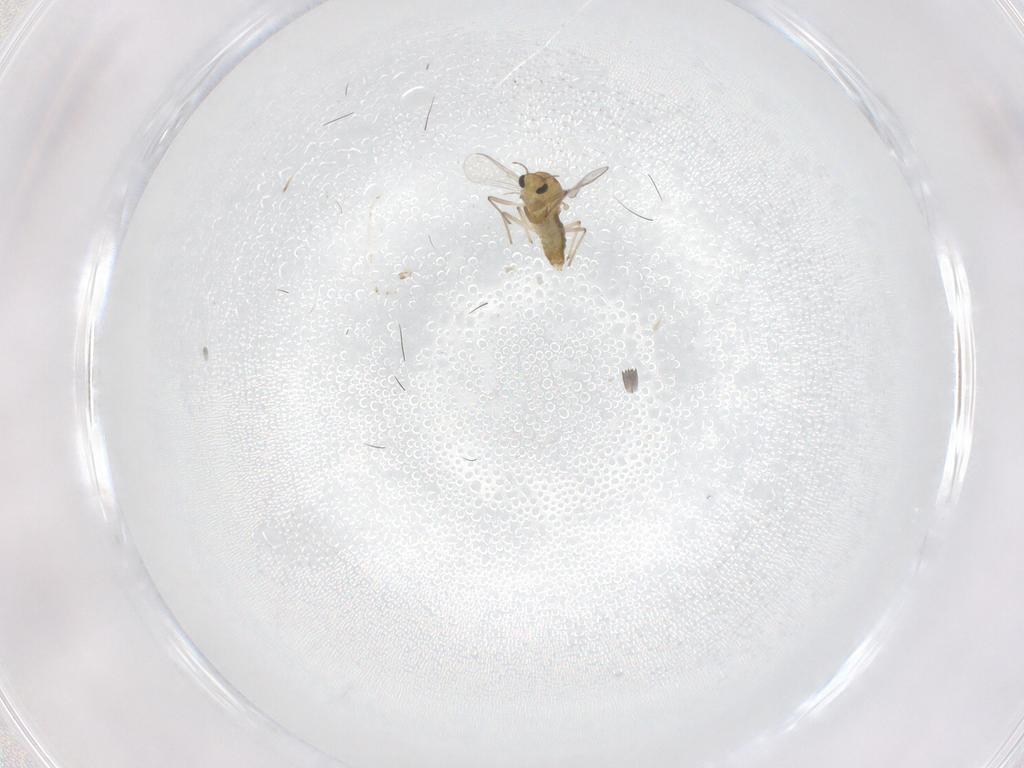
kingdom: Animalia
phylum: Arthropoda
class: Insecta
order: Diptera
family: Chironomidae
